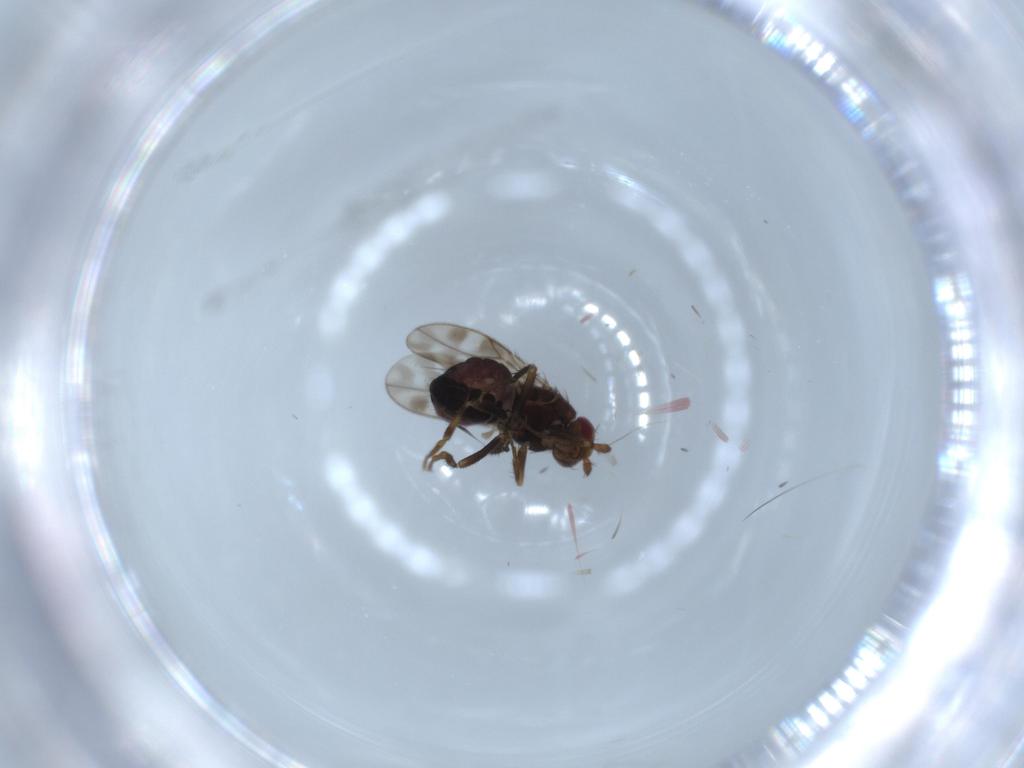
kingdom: Animalia
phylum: Arthropoda
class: Insecta
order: Diptera
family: Sphaeroceridae
